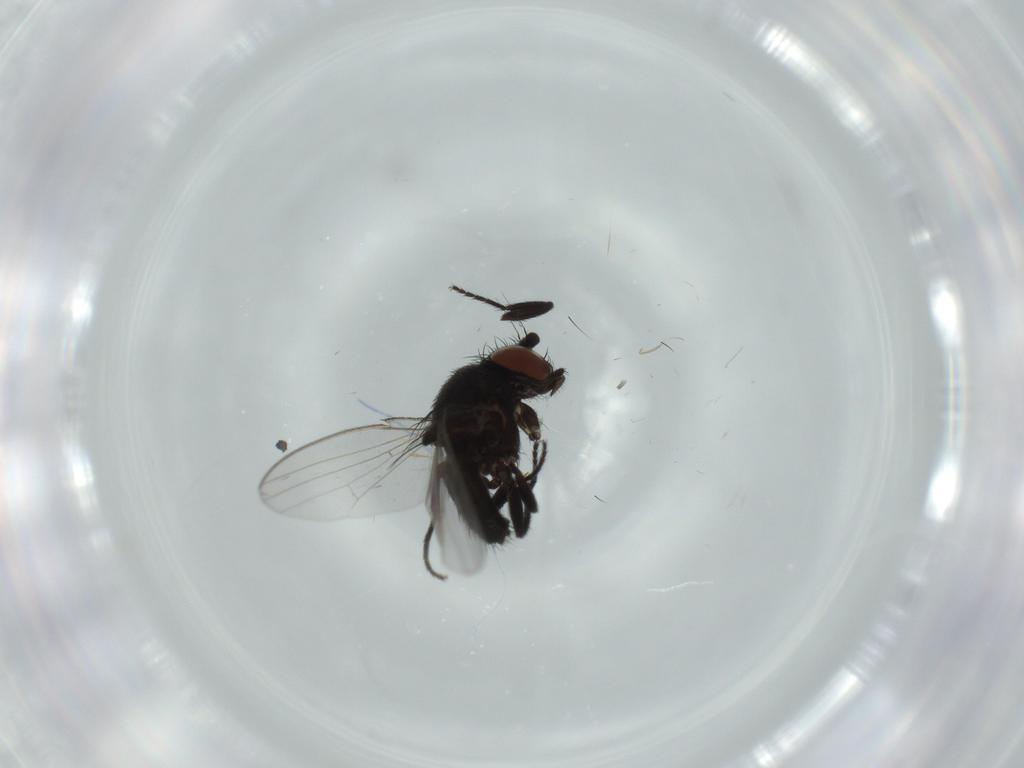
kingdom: Animalia
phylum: Arthropoda
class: Insecta
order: Diptera
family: Milichiidae
